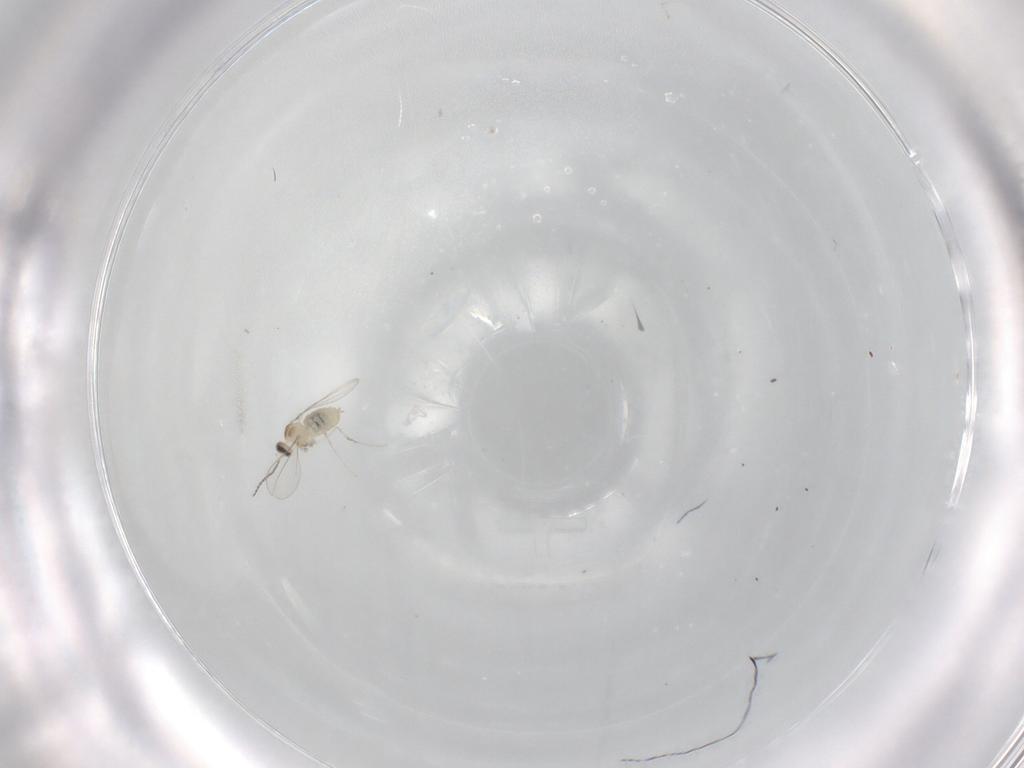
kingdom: Animalia
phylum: Arthropoda
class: Insecta
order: Diptera
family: Cecidomyiidae
